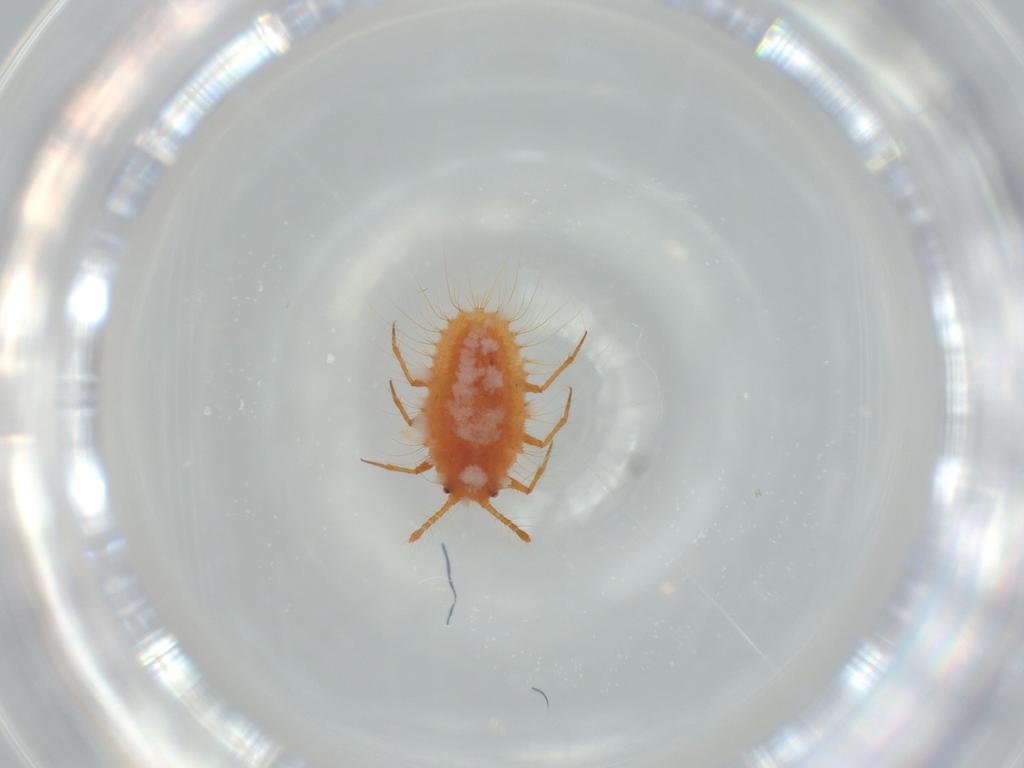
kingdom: Animalia
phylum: Arthropoda
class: Insecta
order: Hemiptera
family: Coccoidea_incertae_sedis
